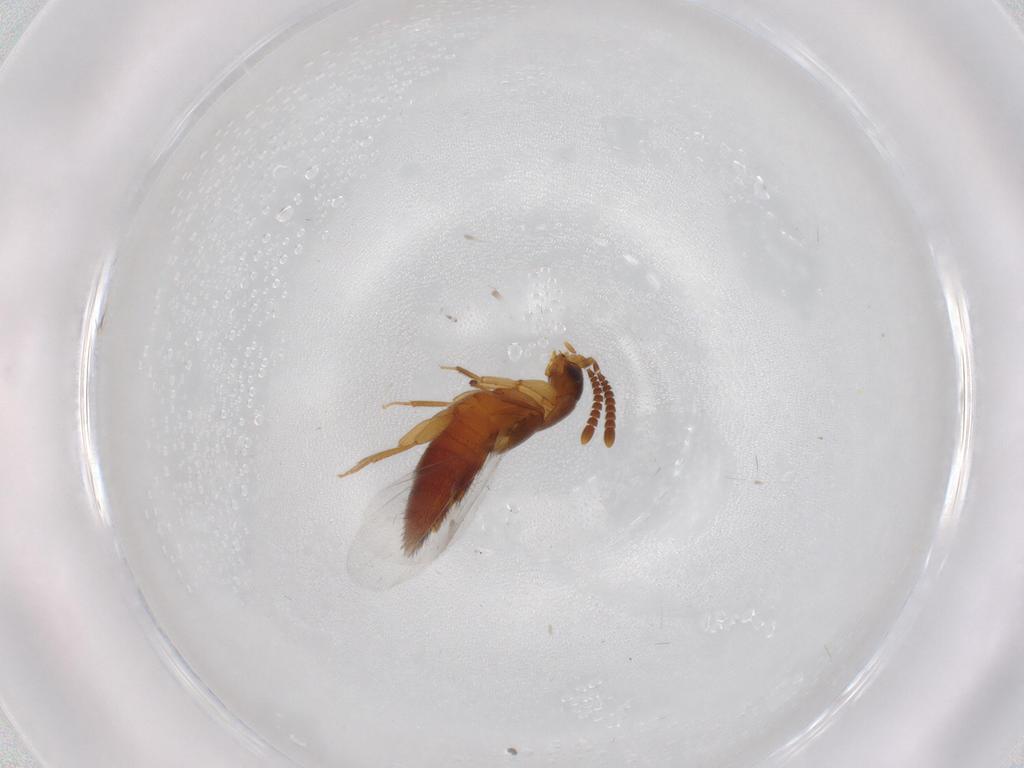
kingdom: Animalia
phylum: Arthropoda
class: Insecta
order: Coleoptera
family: Staphylinidae
